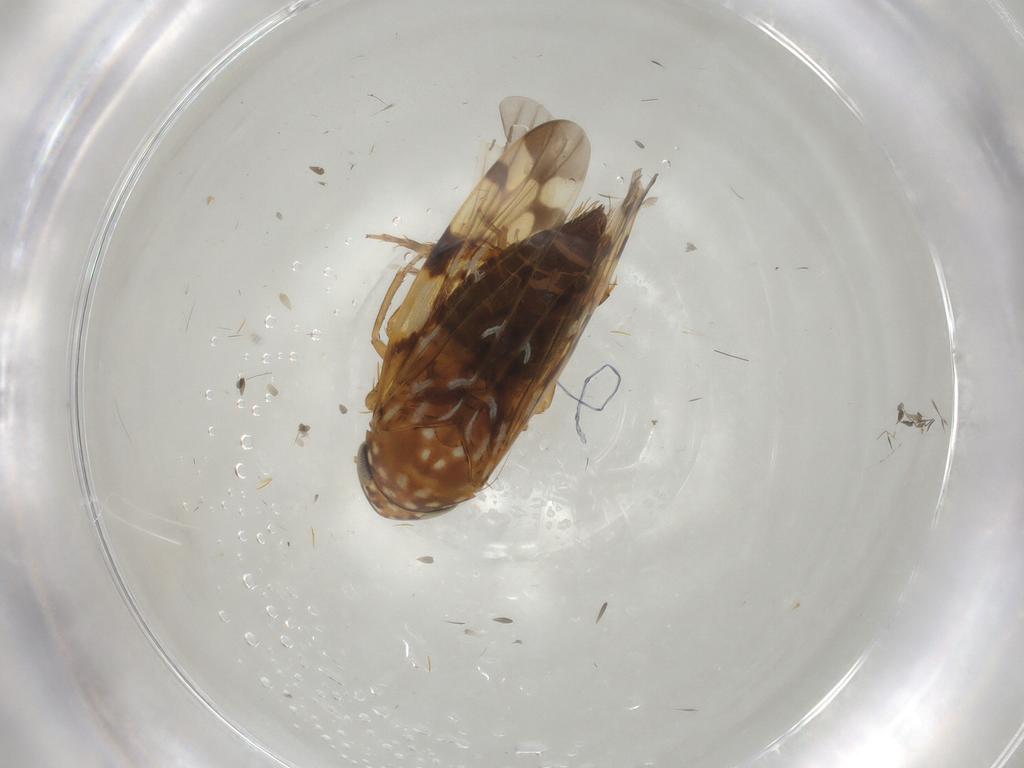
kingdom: Animalia
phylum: Arthropoda
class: Insecta
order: Hemiptera
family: Cicadellidae
